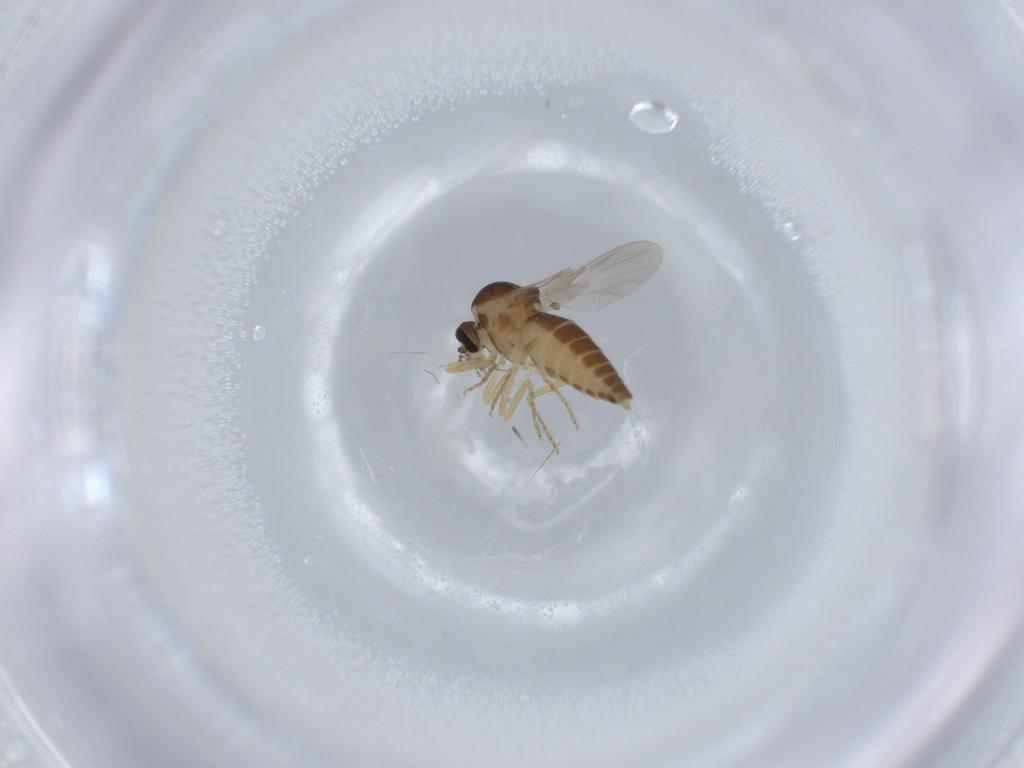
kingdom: Animalia
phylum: Arthropoda
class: Insecta
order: Diptera
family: Ceratopogonidae
